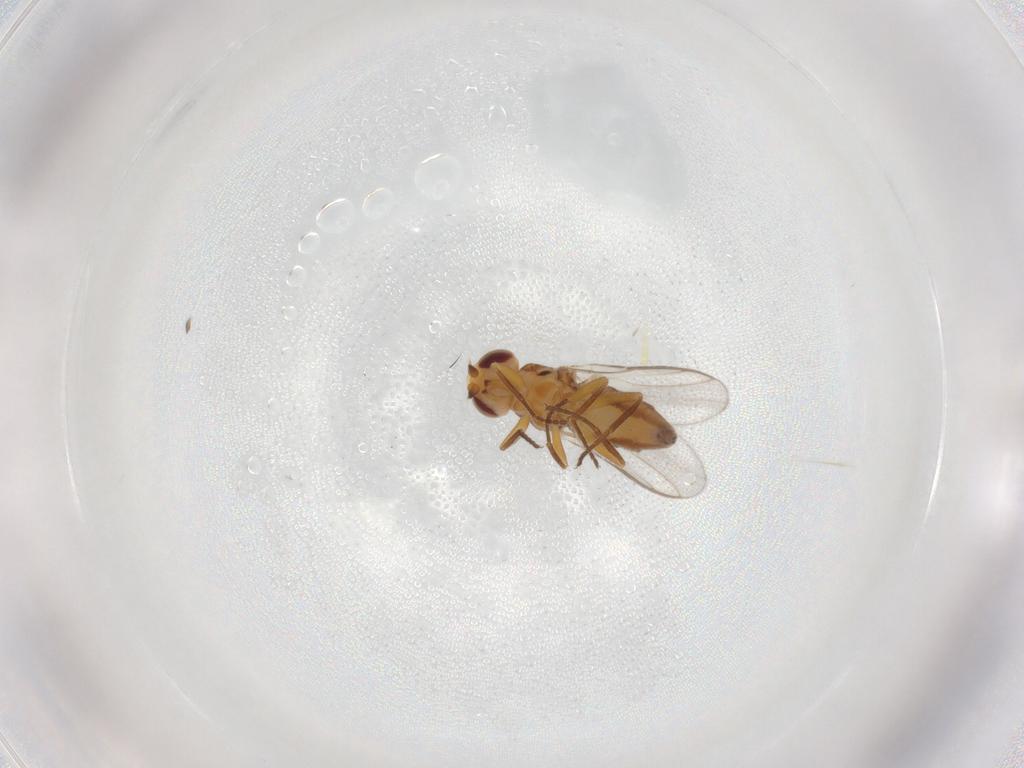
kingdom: Animalia
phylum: Arthropoda
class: Insecta
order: Diptera
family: Chloropidae
